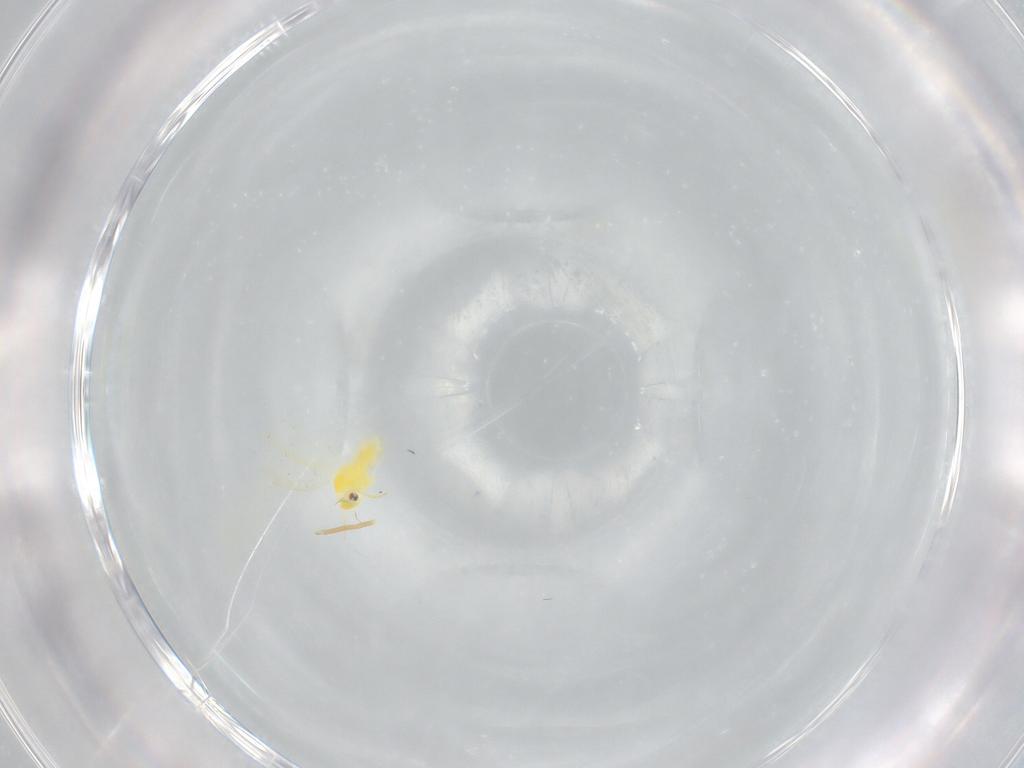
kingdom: Animalia
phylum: Arthropoda
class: Insecta
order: Hemiptera
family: Aleyrodidae
